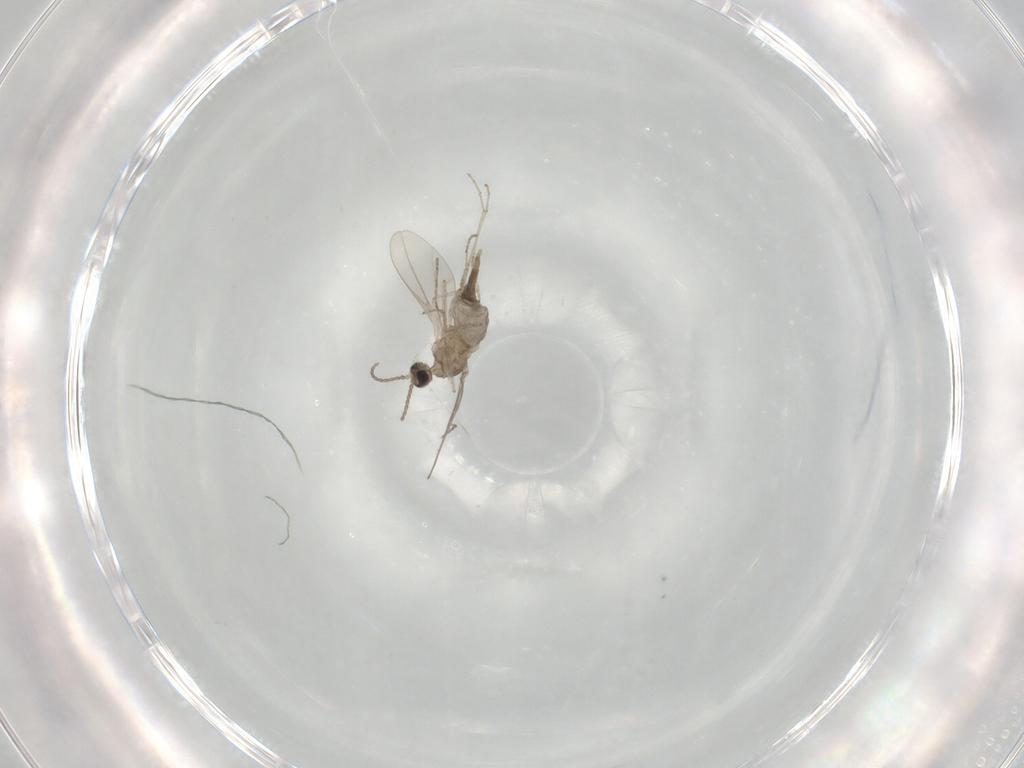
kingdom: Animalia
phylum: Arthropoda
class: Insecta
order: Diptera
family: Cecidomyiidae
